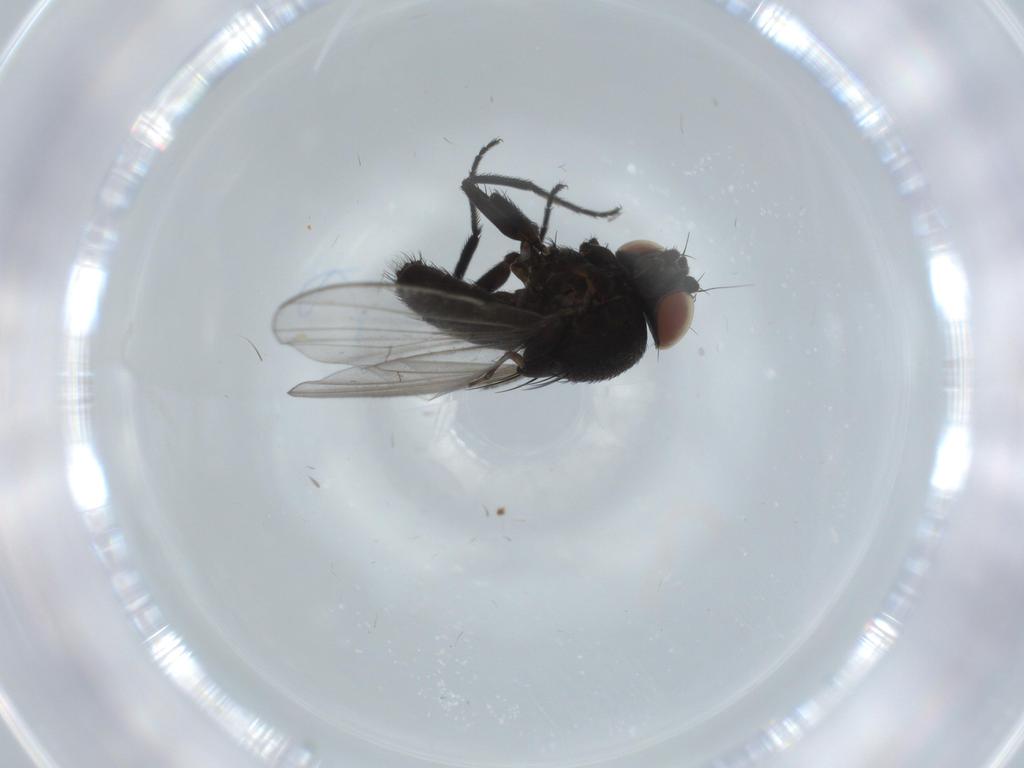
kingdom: Animalia
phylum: Arthropoda
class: Insecta
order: Diptera
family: Milichiidae
